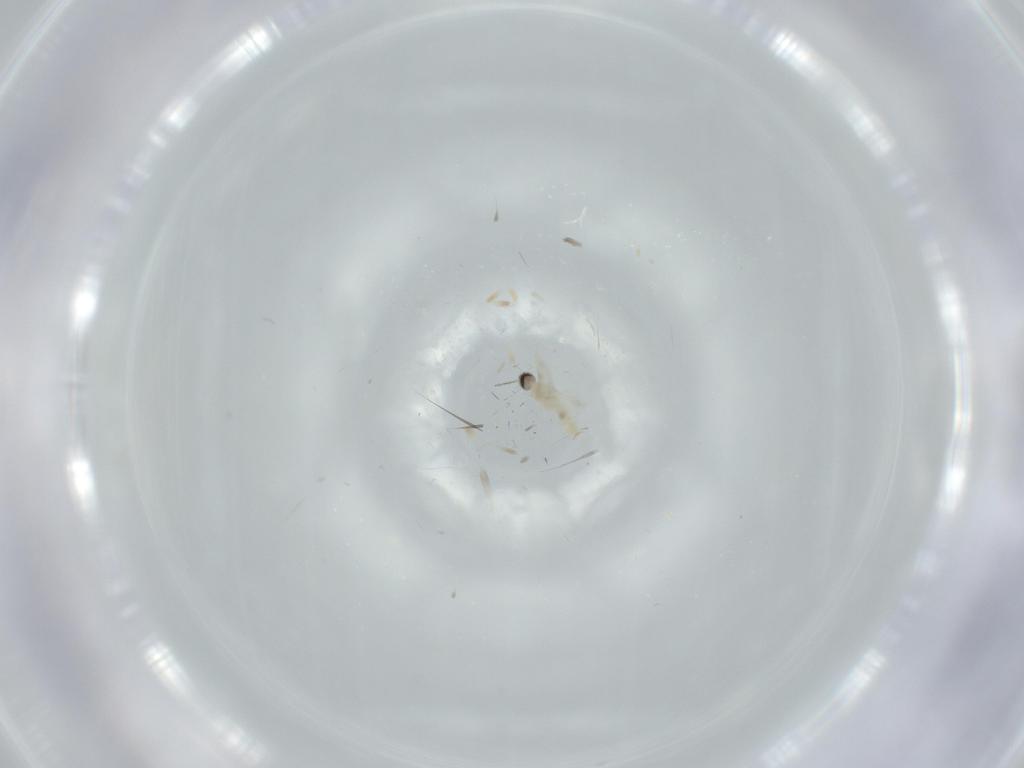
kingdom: Animalia
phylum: Arthropoda
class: Insecta
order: Diptera
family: Cecidomyiidae
